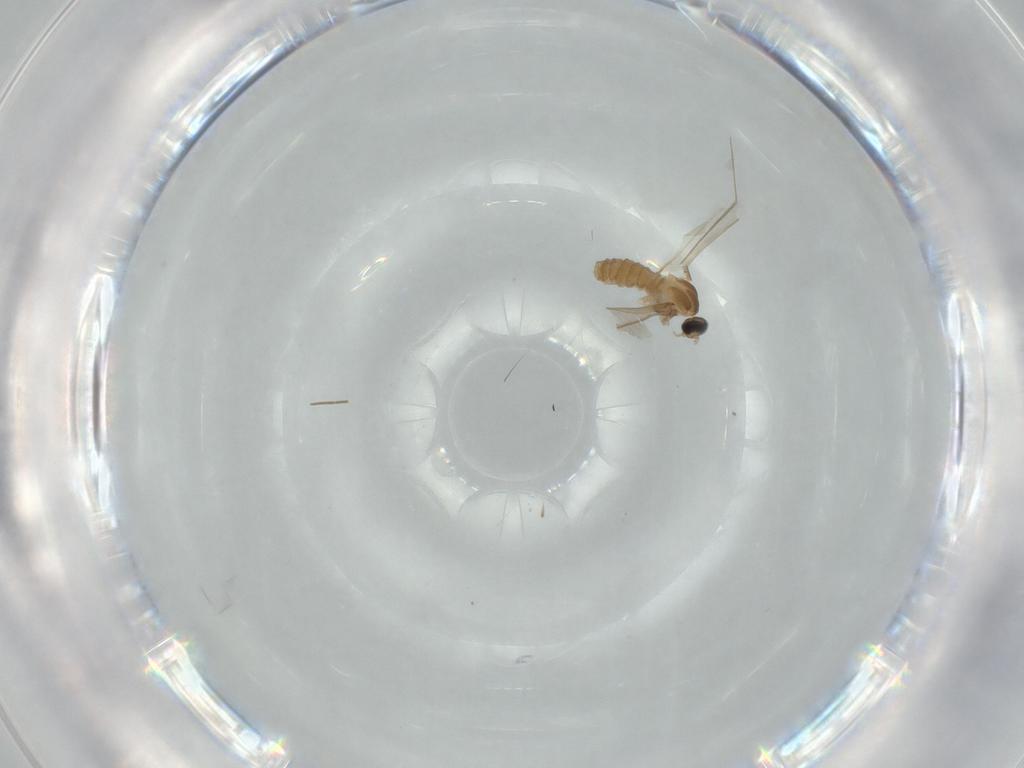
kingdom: Animalia
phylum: Arthropoda
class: Insecta
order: Diptera
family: Cecidomyiidae
